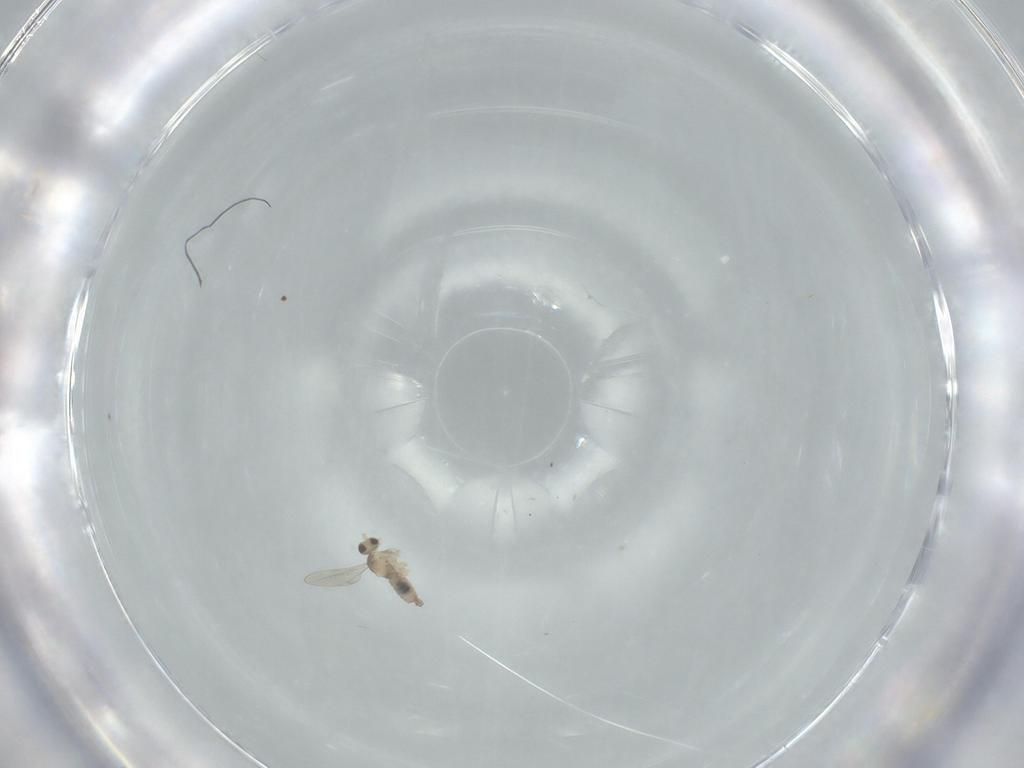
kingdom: Animalia
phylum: Arthropoda
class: Insecta
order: Diptera
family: Cecidomyiidae
